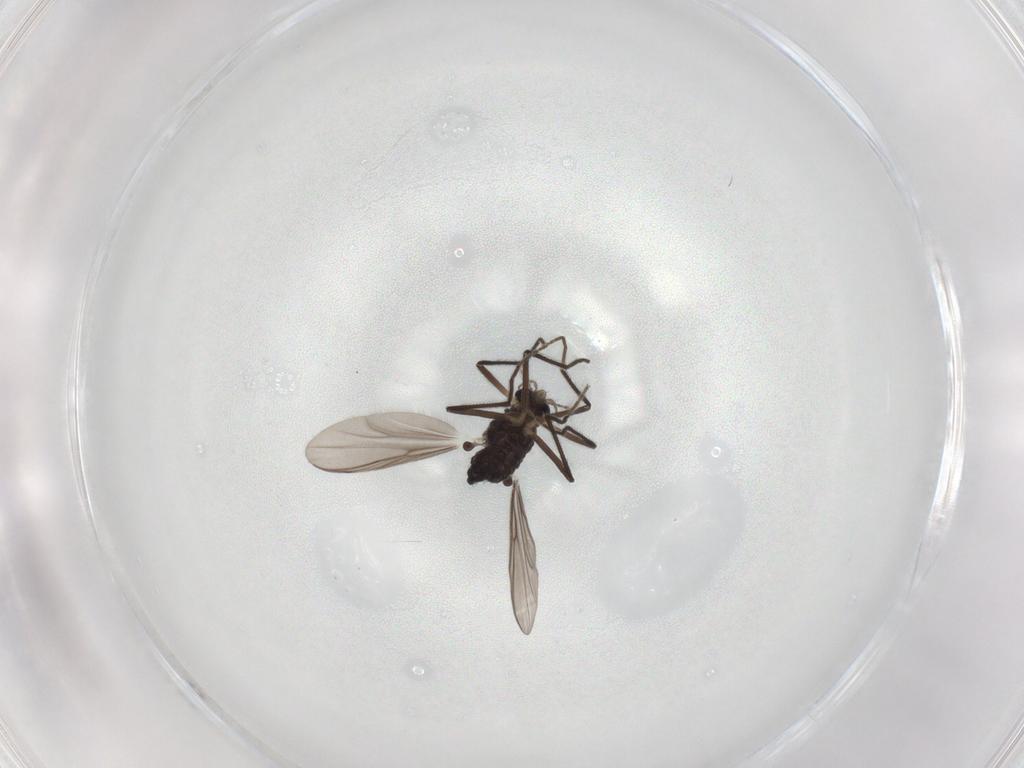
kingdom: Animalia
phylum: Arthropoda
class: Insecta
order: Diptera
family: Chironomidae
